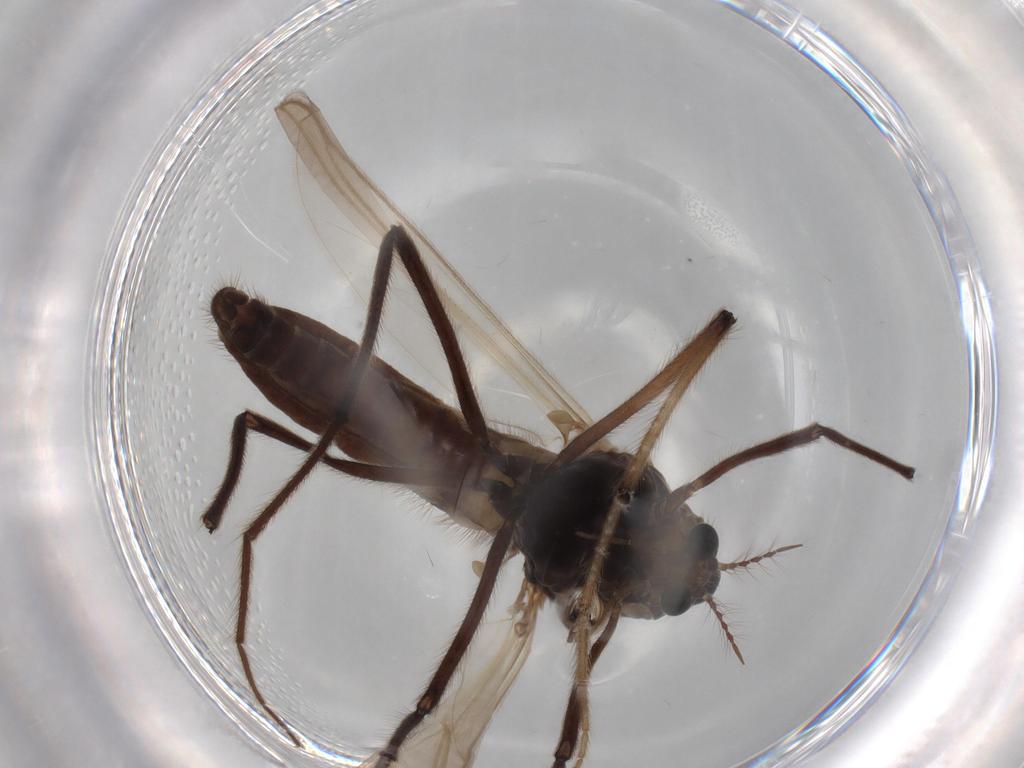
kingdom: Animalia
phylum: Arthropoda
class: Insecta
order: Diptera
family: Chironomidae
